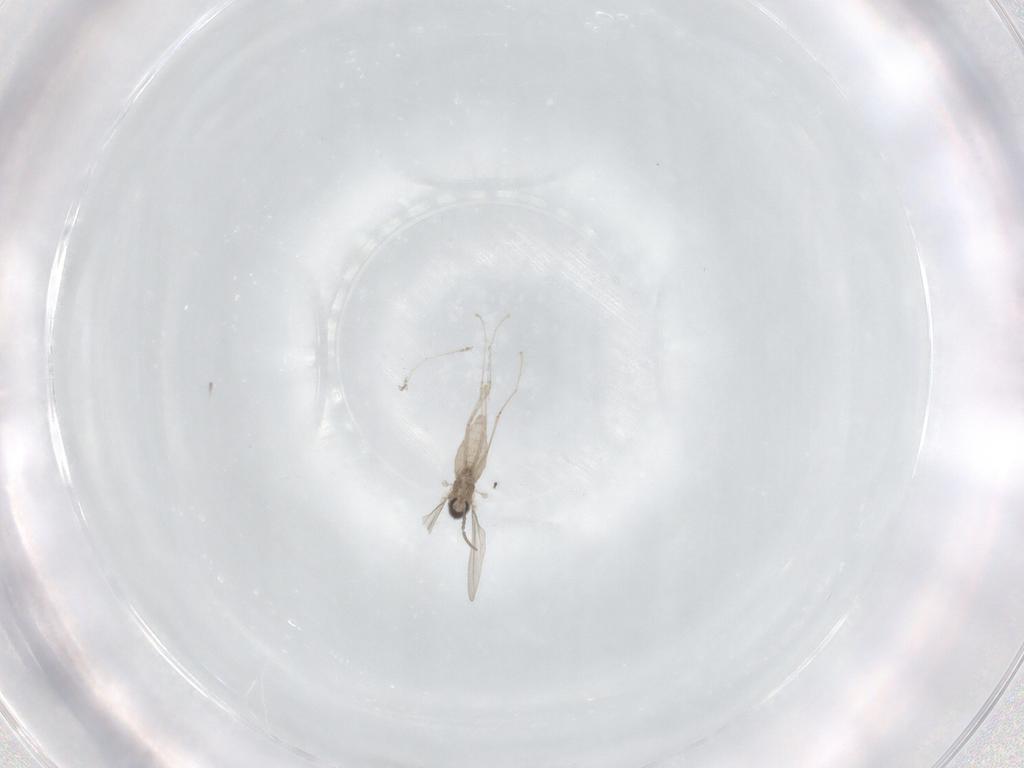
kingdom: Animalia
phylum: Arthropoda
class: Insecta
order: Diptera
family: Cecidomyiidae
